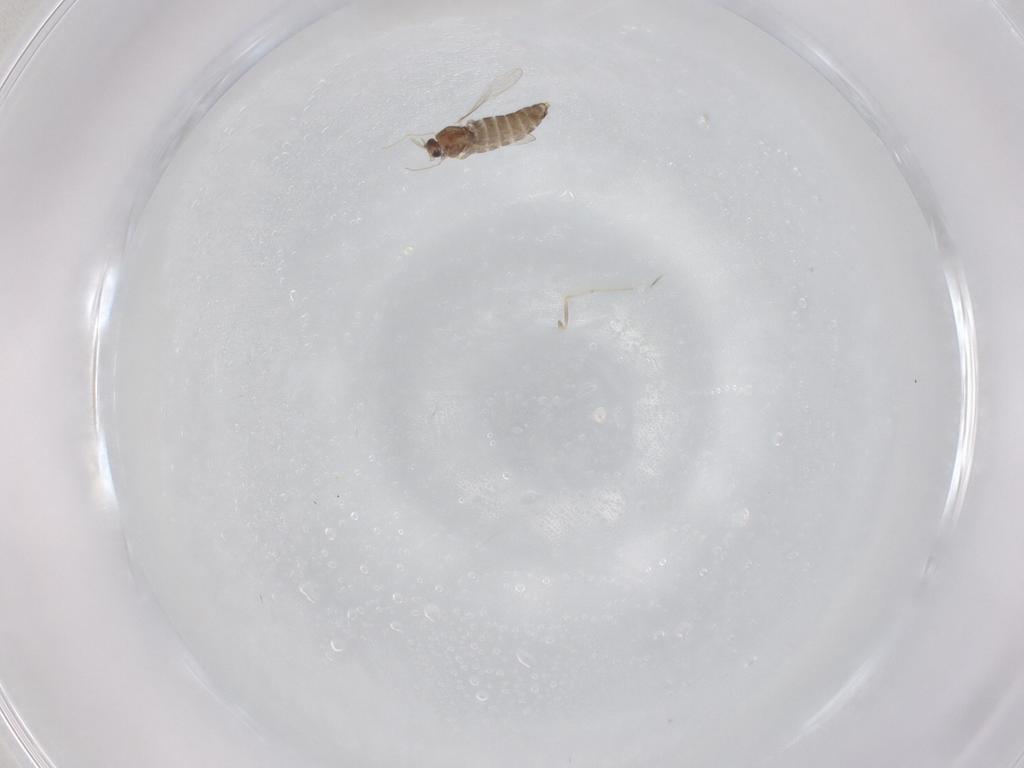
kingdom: Animalia
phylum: Arthropoda
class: Insecta
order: Diptera
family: Chironomidae
